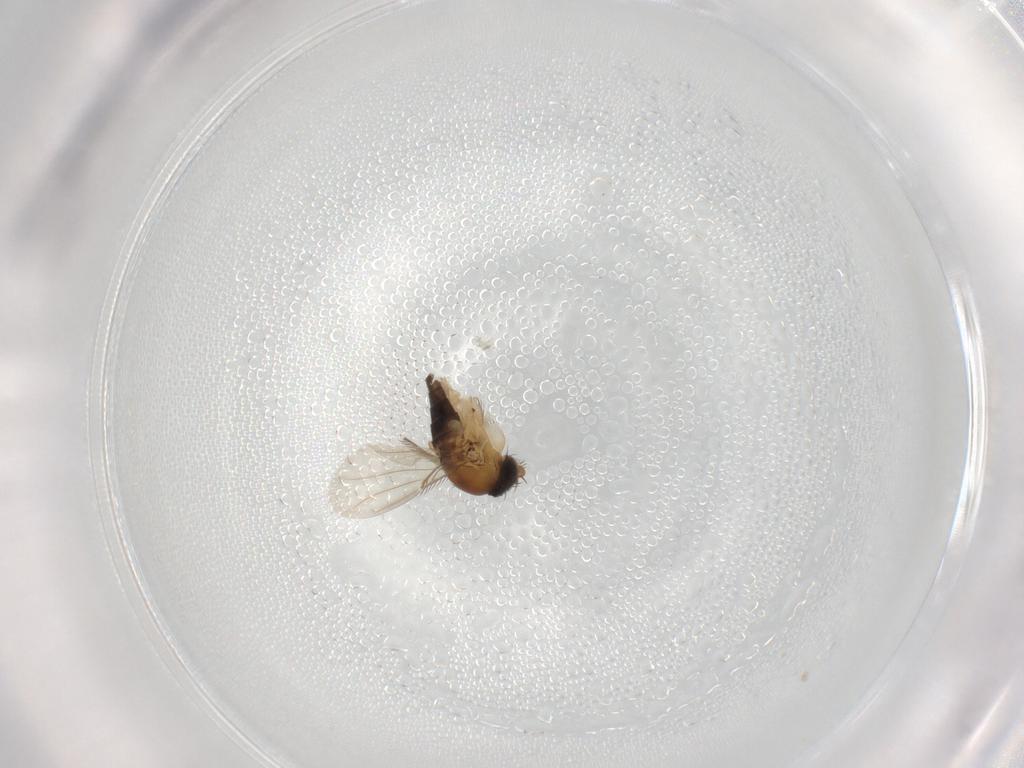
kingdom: Animalia
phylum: Arthropoda
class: Insecta
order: Diptera
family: Phoridae
